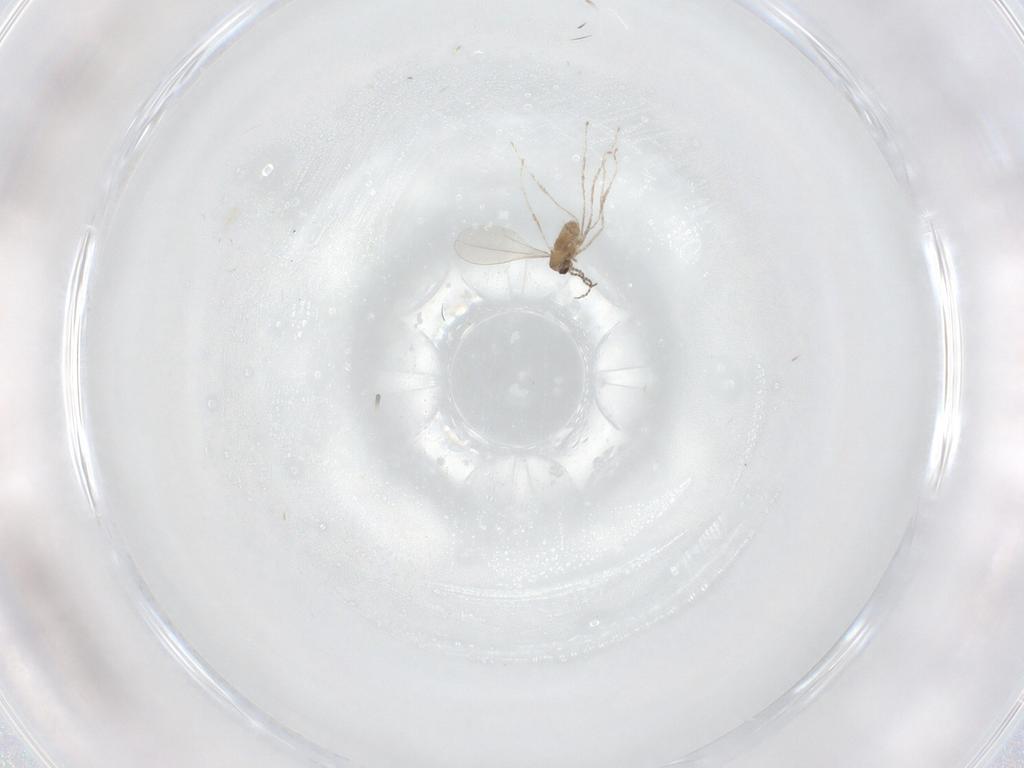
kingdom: Animalia
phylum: Arthropoda
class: Insecta
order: Diptera
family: Cecidomyiidae
